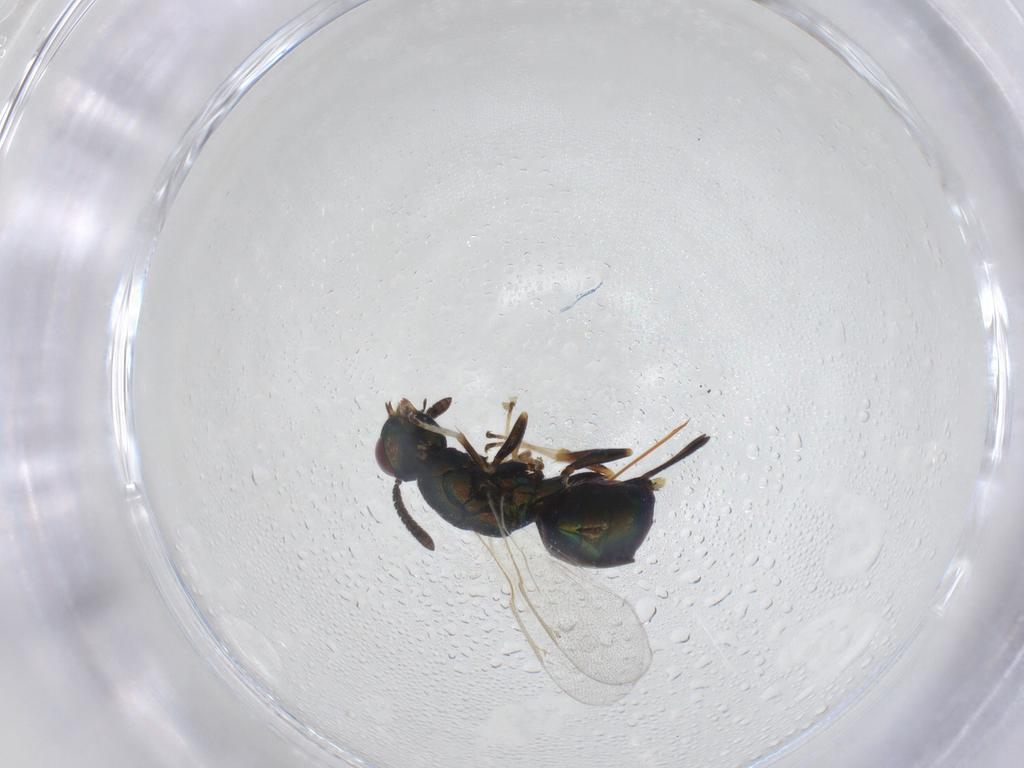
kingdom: Animalia
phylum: Arthropoda
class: Insecta
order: Hymenoptera
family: Torymidae
